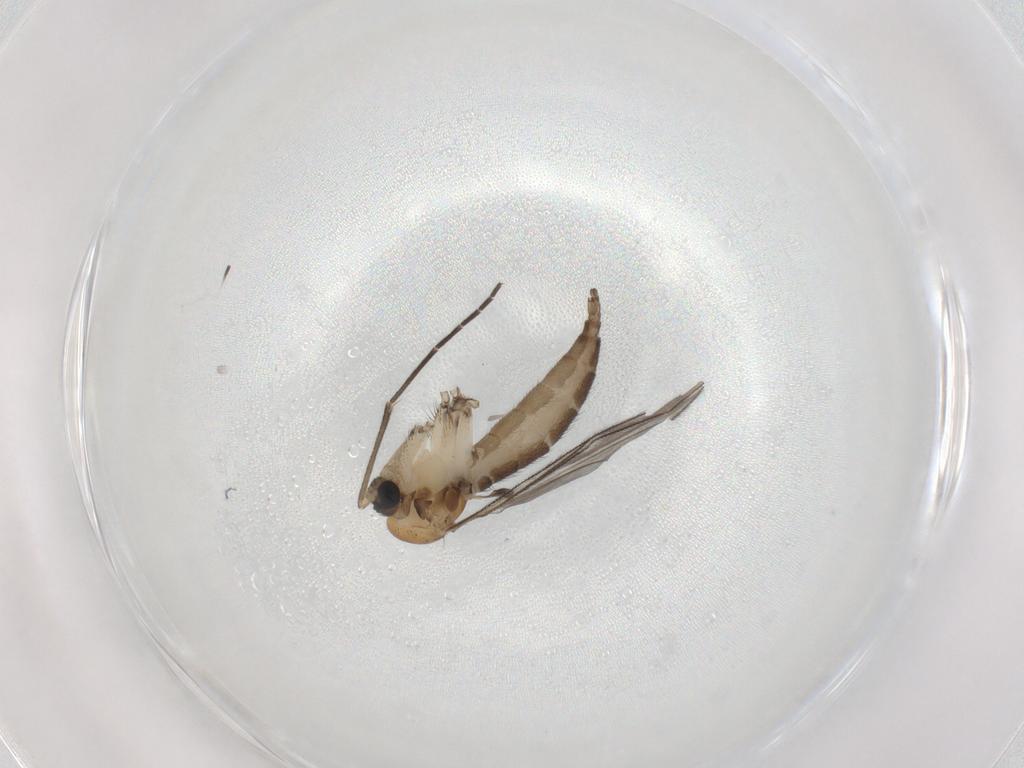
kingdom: Animalia
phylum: Arthropoda
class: Insecta
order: Diptera
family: Sciaridae
